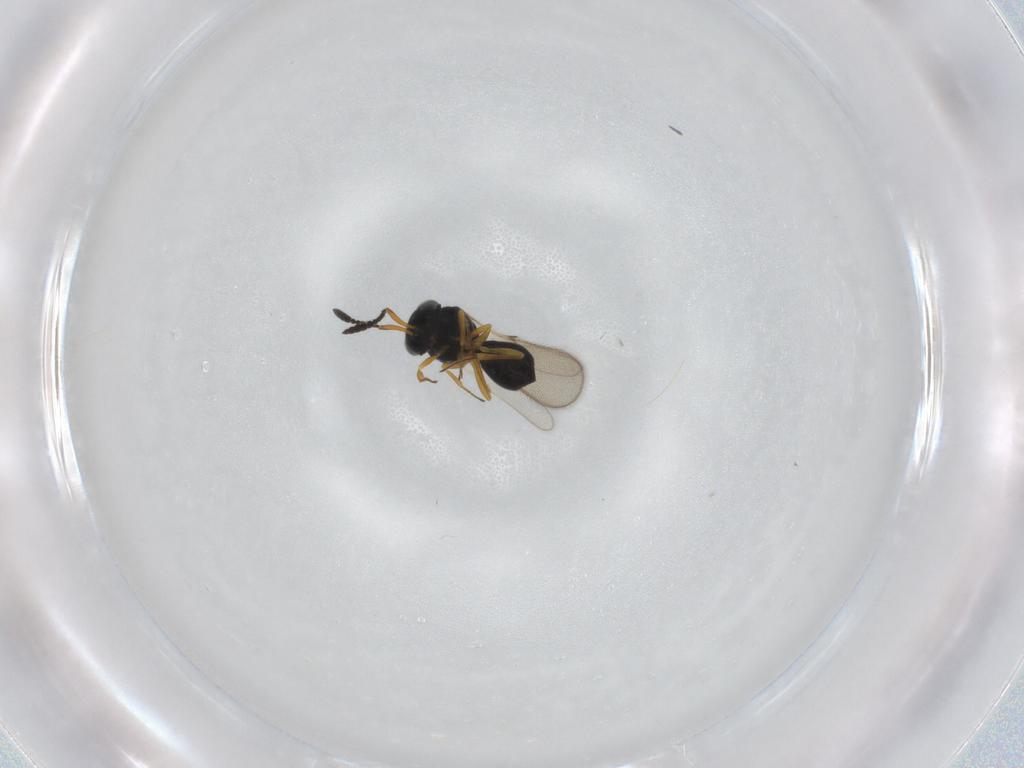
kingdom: Animalia
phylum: Arthropoda
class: Insecta
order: Hymenoptera
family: Scelionidae
